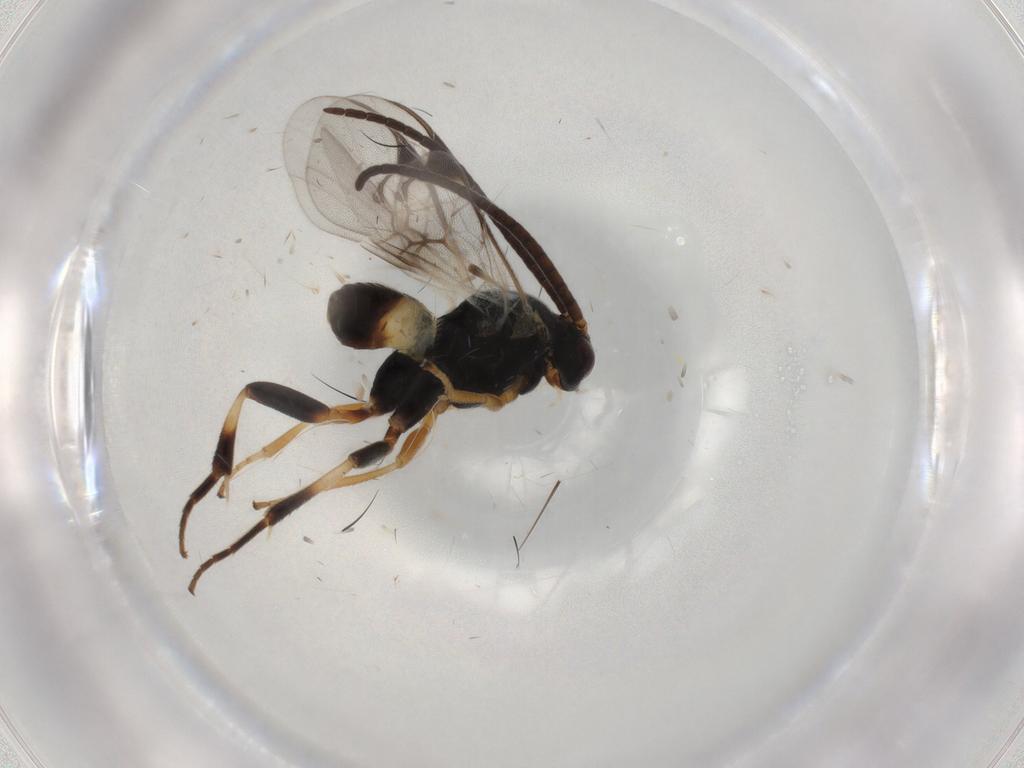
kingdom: Animalia
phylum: Arthropoda
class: Insecta
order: Hymenoptera
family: Braconidae
